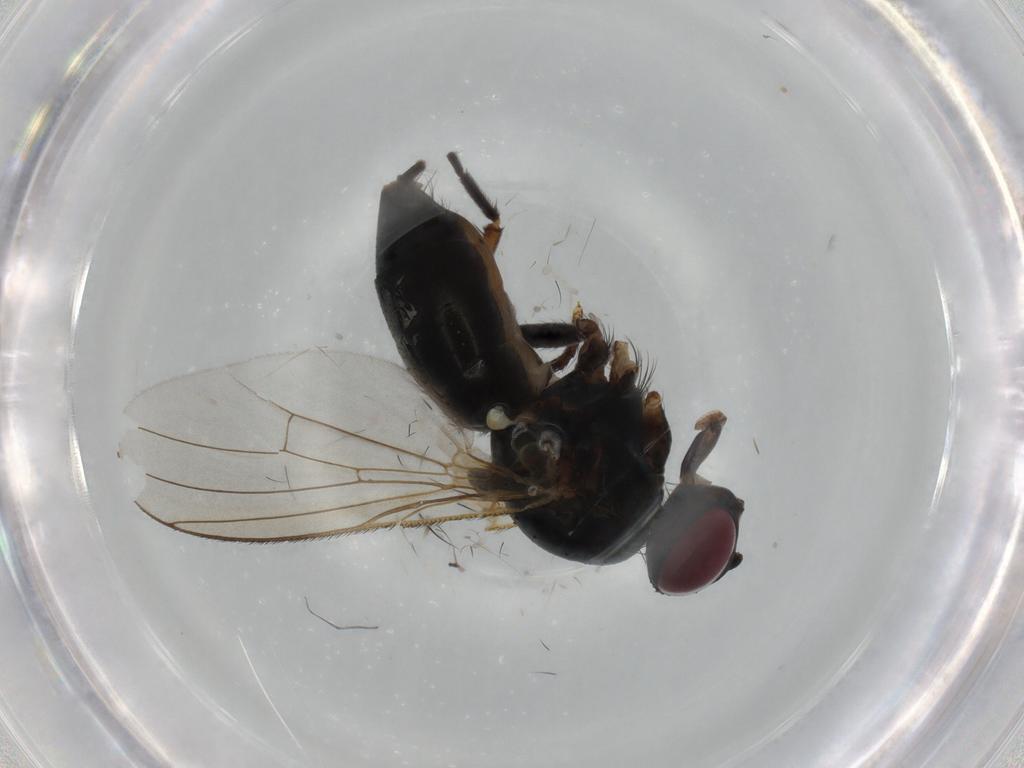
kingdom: Animalia
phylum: Arthropoda
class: Insecta
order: Diptera
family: Muscidae
